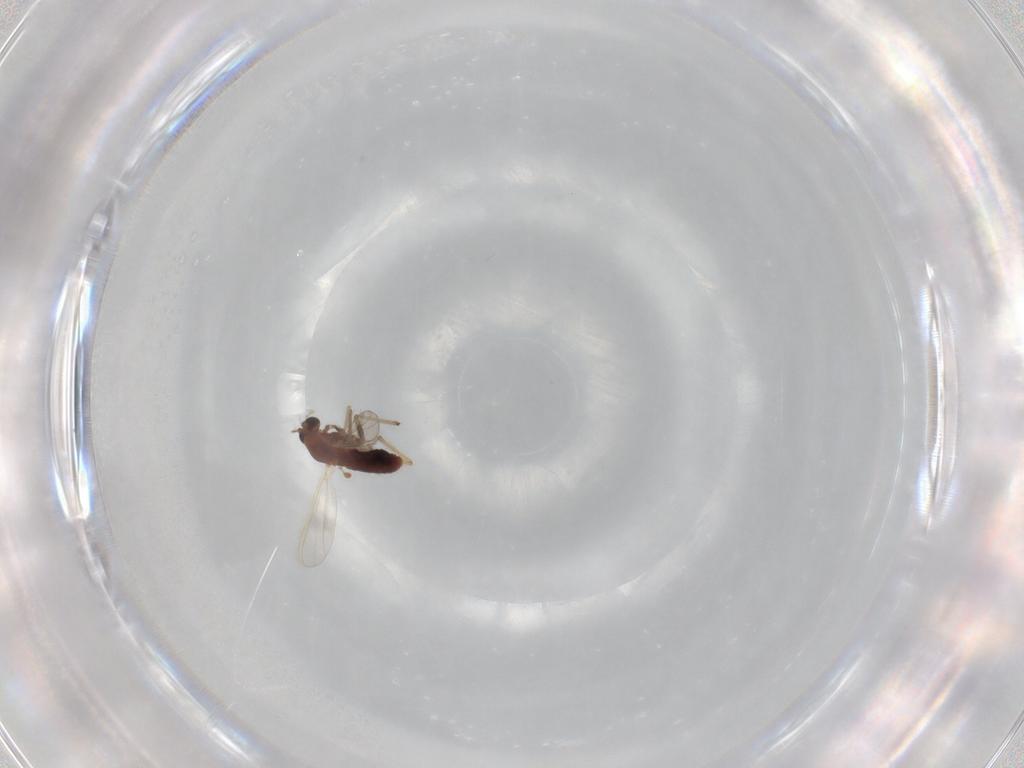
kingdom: Animalia
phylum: Arthropoda
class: Insecta
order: Diptera
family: Chironomidae
